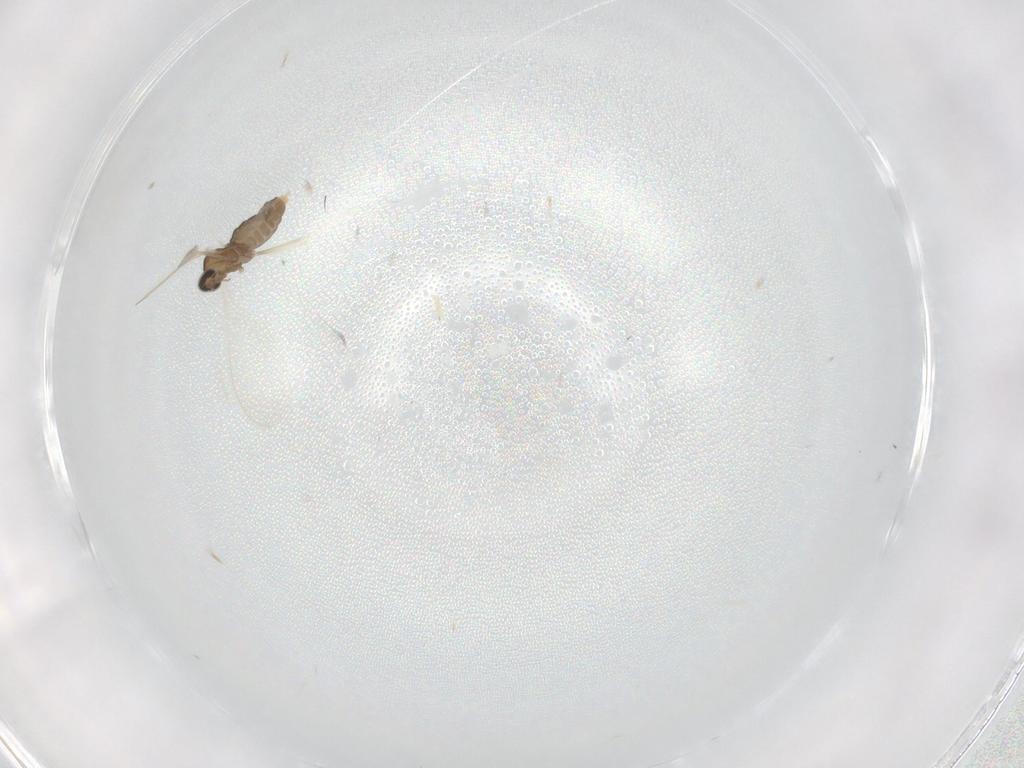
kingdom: Animalia
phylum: Arthropoda
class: Insecta
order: Diptera
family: Cecidomyiidae
